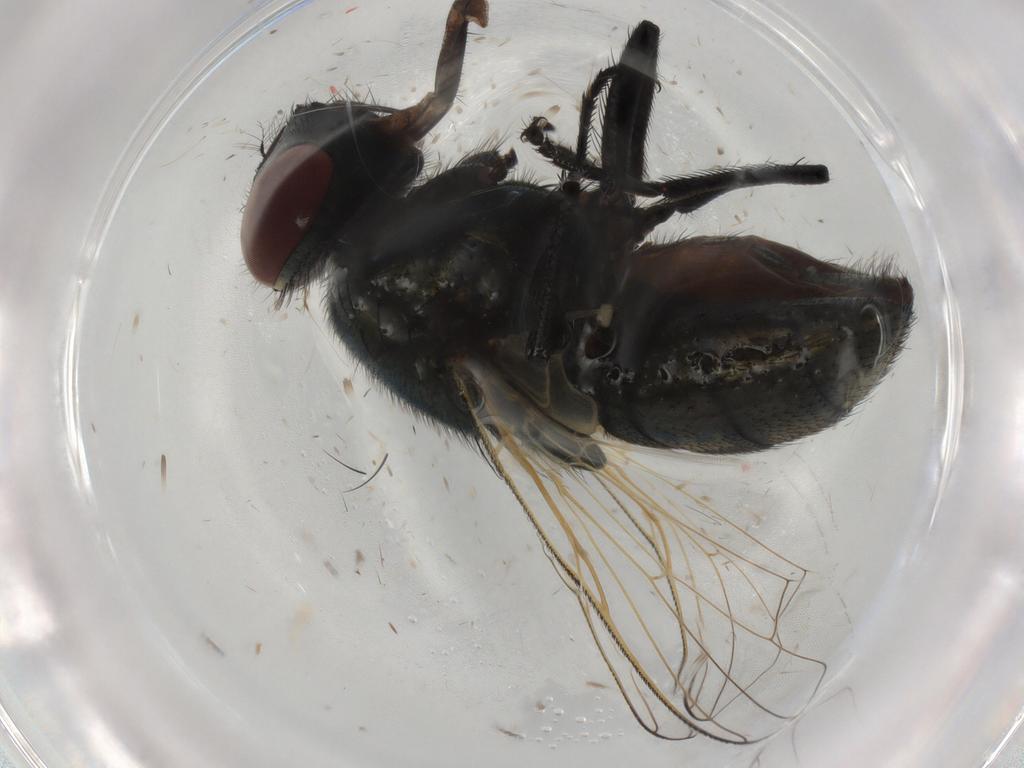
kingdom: Animalia
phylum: Arthropoda
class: Insecta
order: Diptera
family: Muscidae
